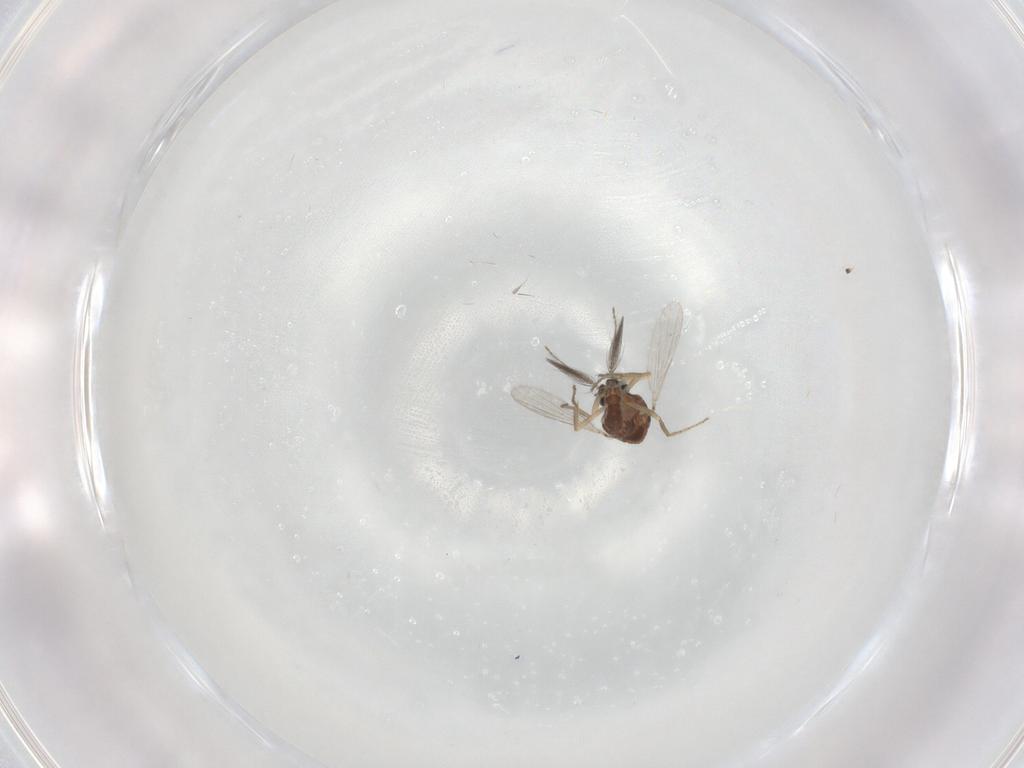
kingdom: Animalia
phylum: Arthropoda
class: Insecta
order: Diptera
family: Ceratopogonidae
